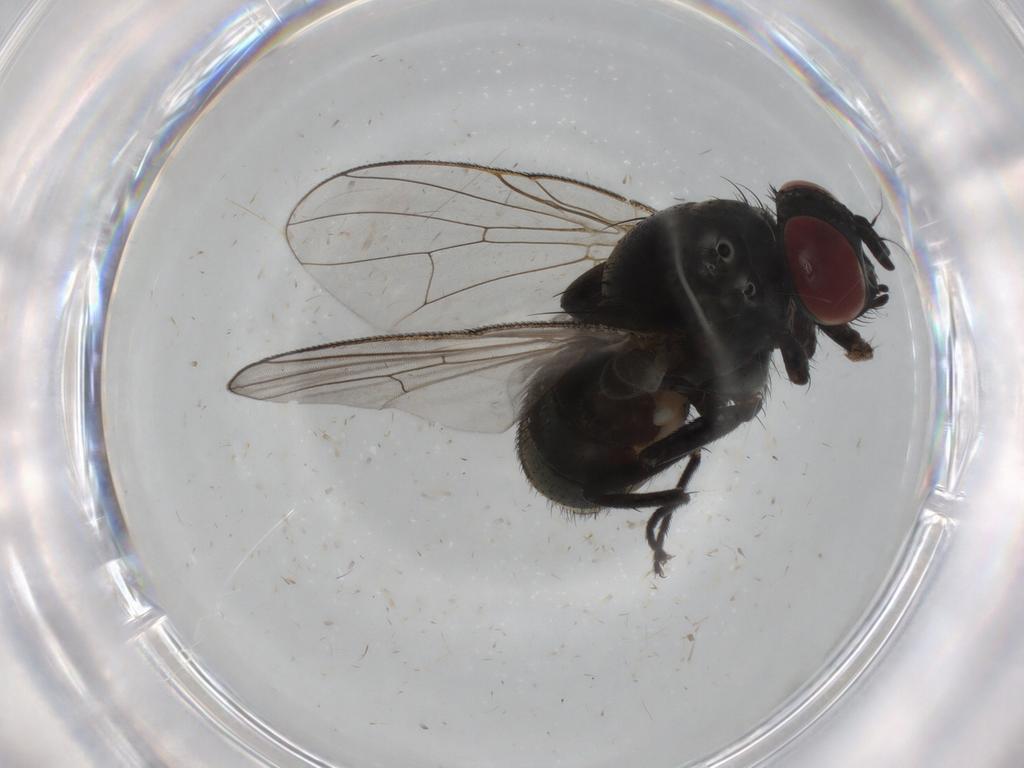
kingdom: Animalia
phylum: Arthropoda
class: Insecta
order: Diptera
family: Muscidae
